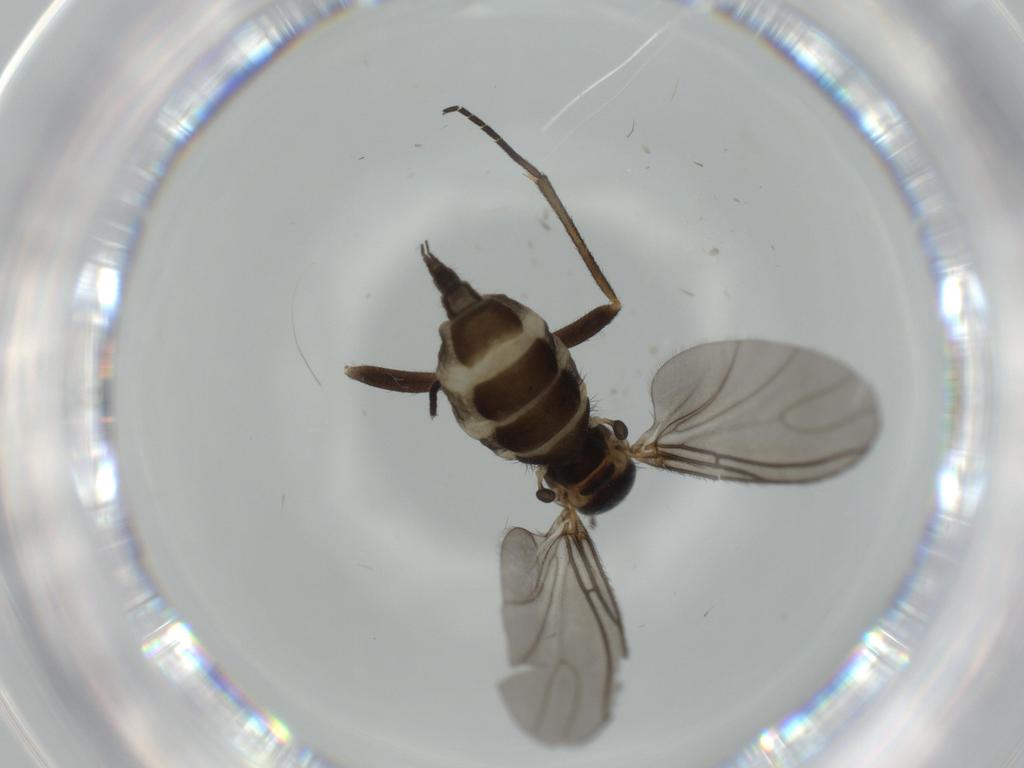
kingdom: Animalia
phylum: Arthropoda
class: Insecta
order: Diptera
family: Sciaridae
